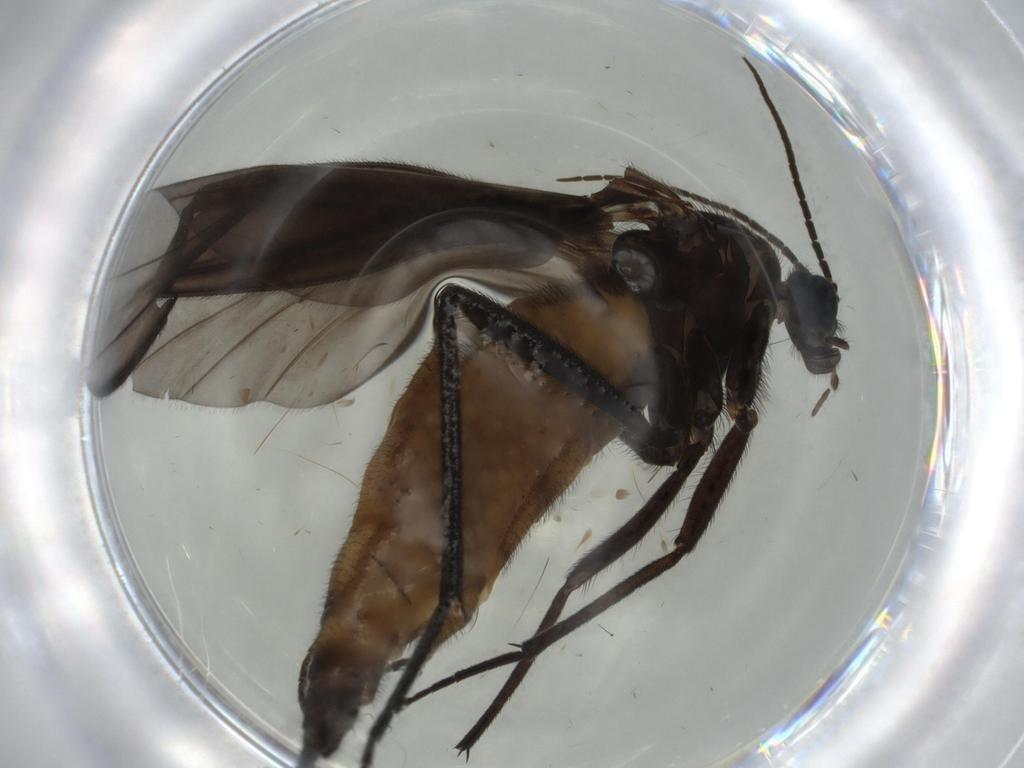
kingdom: Animalia
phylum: Arthropoda
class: Insecta
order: Diptera
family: Sciaridae
